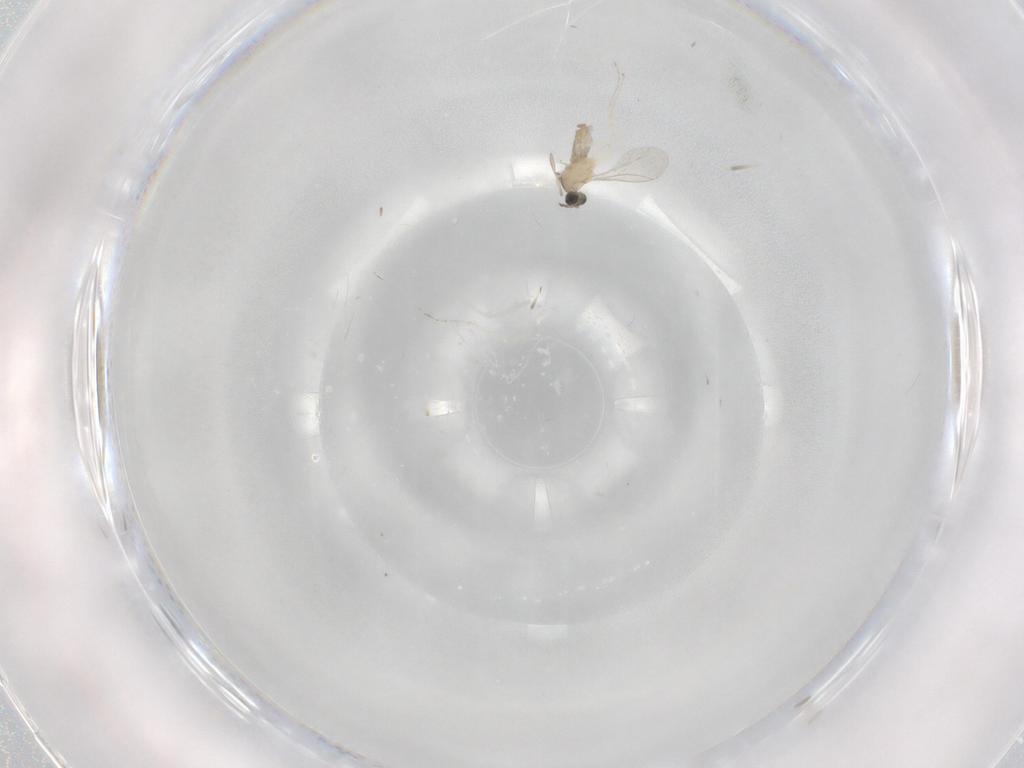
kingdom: Animalia
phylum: Arthropoda
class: Insecta
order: Diptera
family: Cecidomyiidae
